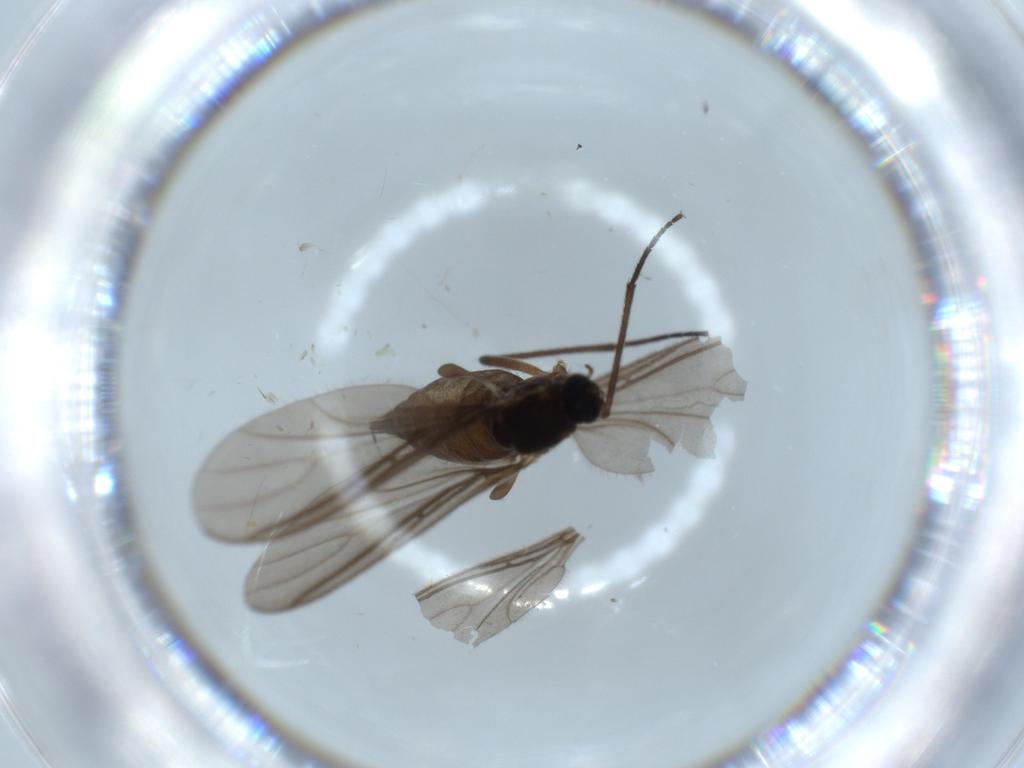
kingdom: Animalia
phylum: Arthropoda
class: Insecta
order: Diptera
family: Sciaridae
